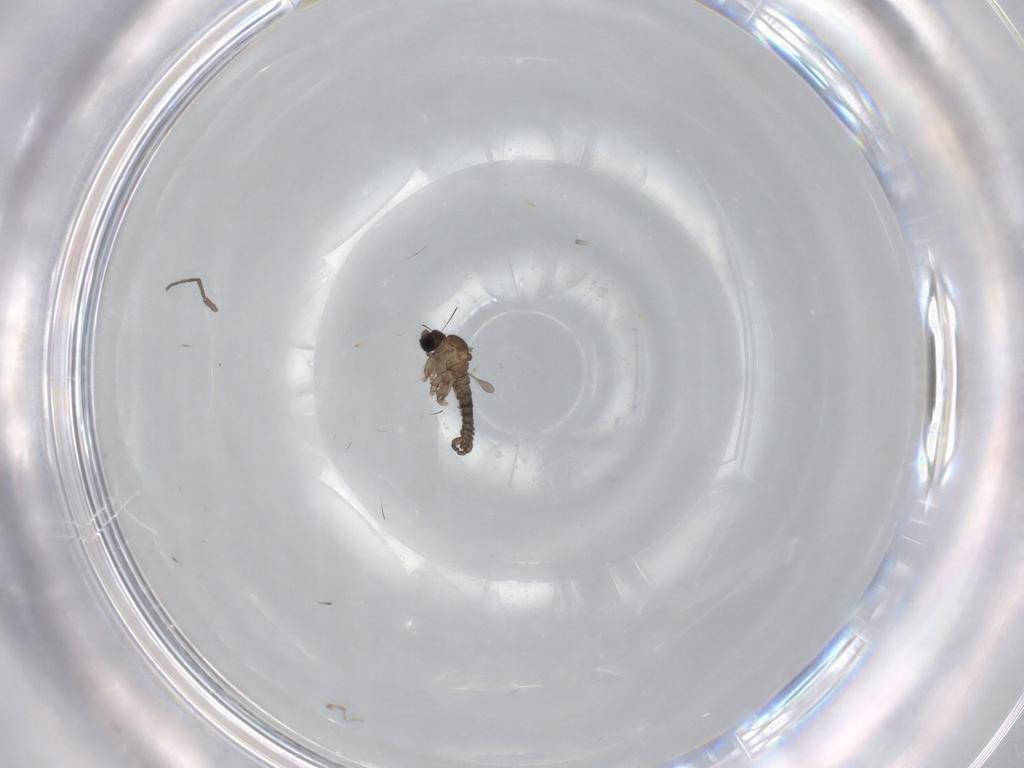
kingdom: Animalia
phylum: Arthropoda
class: Insecta
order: Diptera
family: Sciaridae
